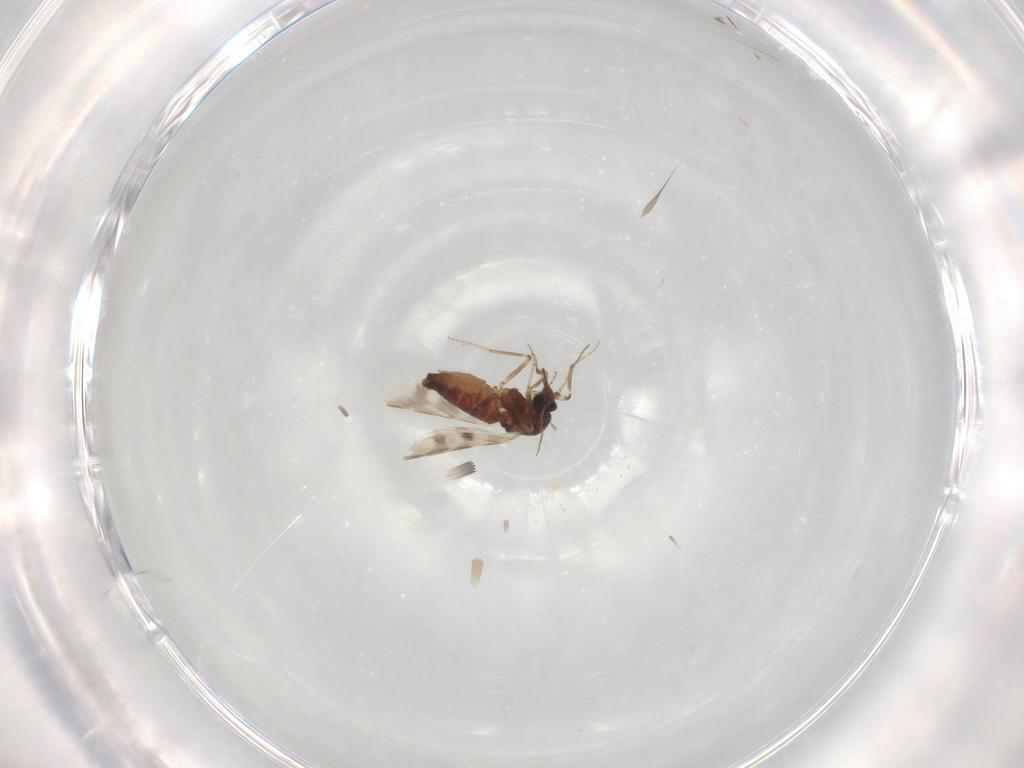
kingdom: Animalia
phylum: Arthropoda
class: Insecta
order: Diptera
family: Cecidomyiidae
